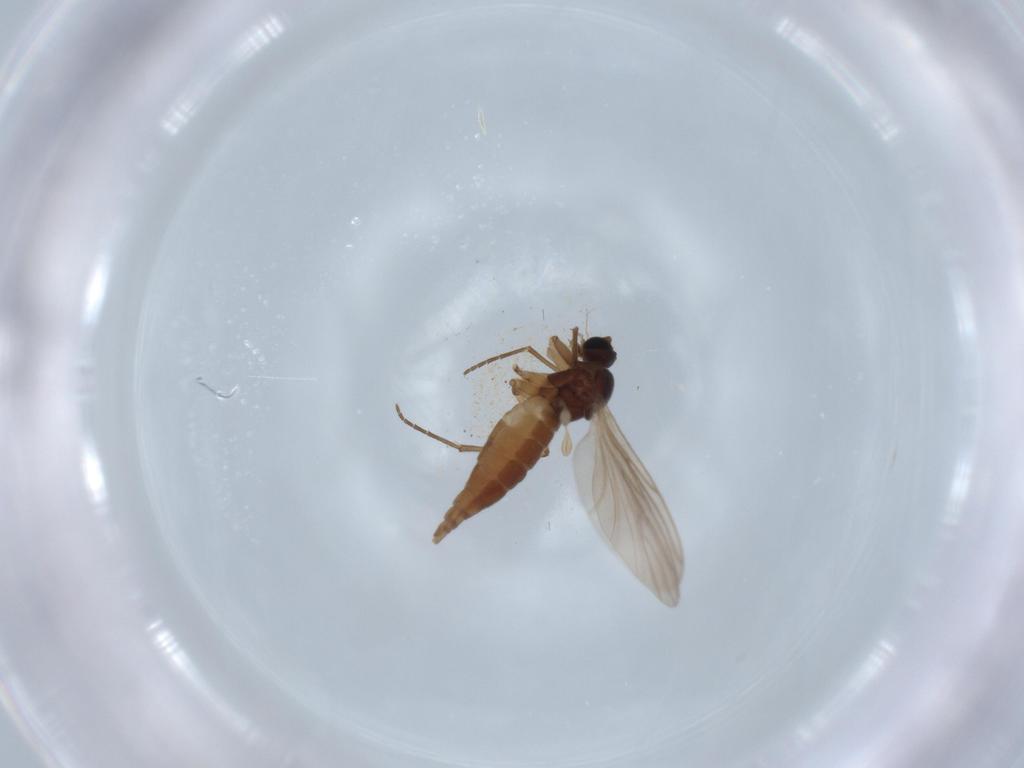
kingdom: Animalia
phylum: Arthropoda
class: Insecta
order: Diptera
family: Sciaridae
